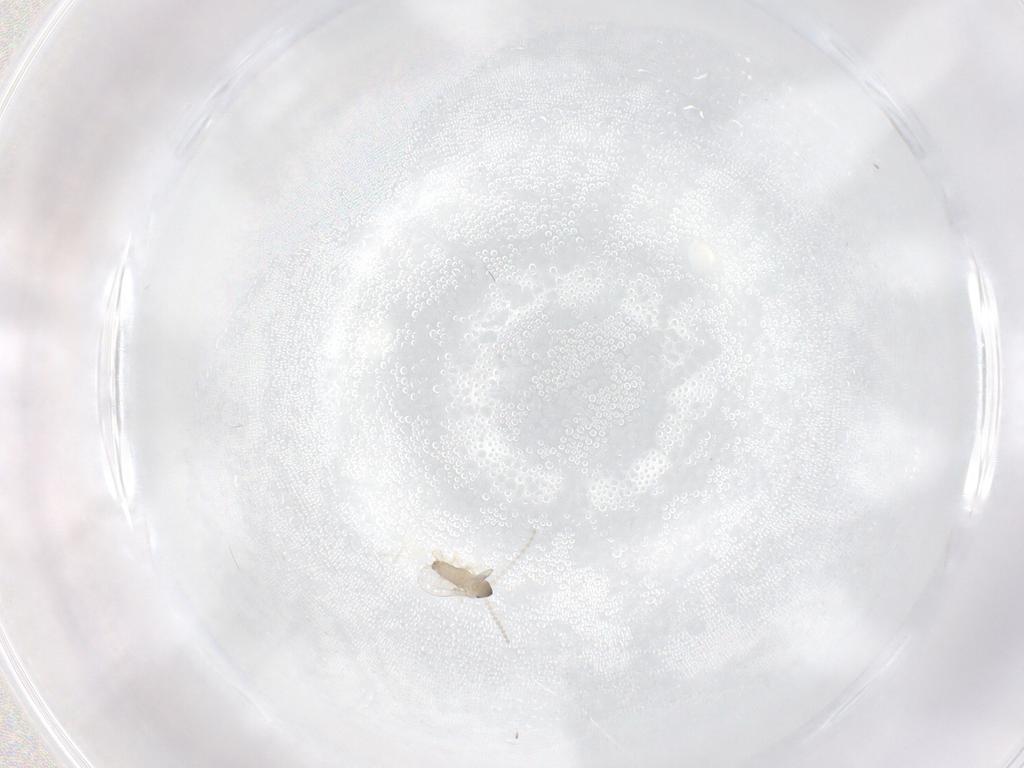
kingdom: Animalia
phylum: Arthropoda
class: Insecta
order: Diptera
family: Cecidomyiidae
